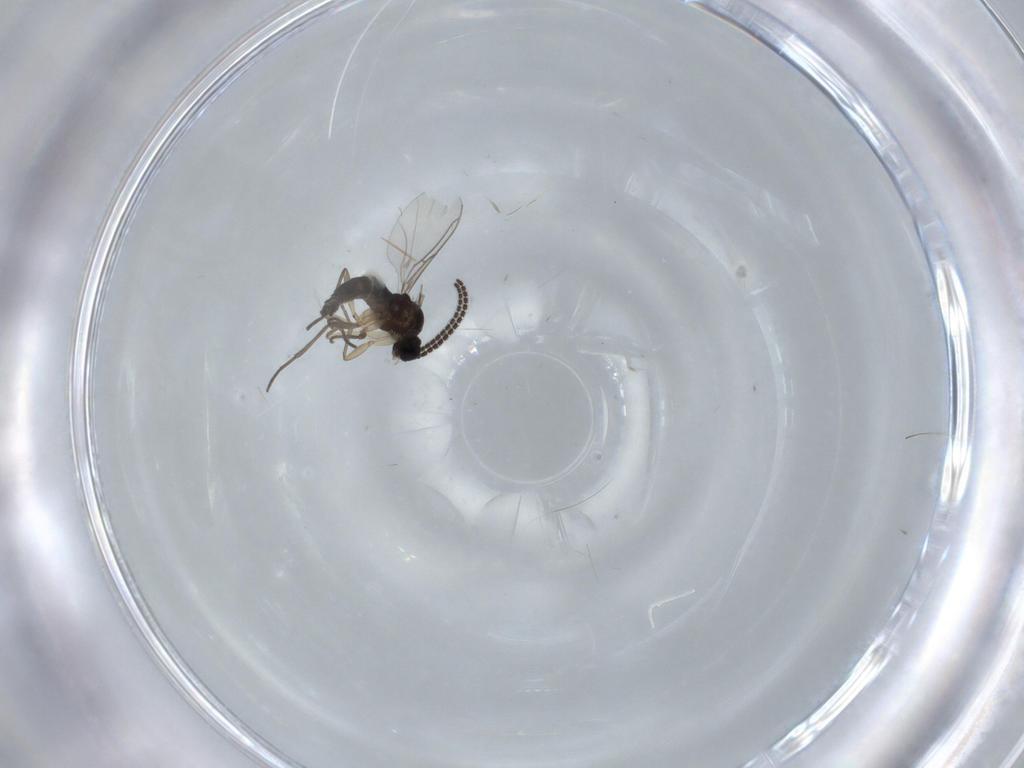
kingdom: Animalia
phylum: Arthropoda
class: Insecta
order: Diptera
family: Sciaridae
